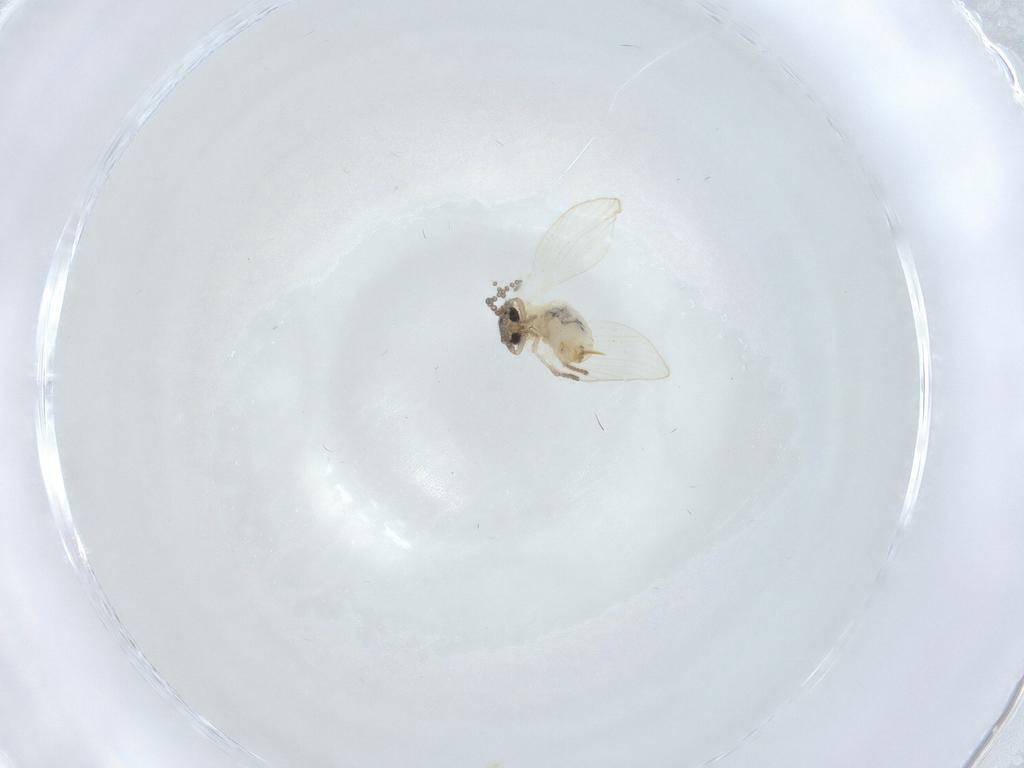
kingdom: Animalia
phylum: Arthropoda
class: Insecta
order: Diptera
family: Psychodidae
